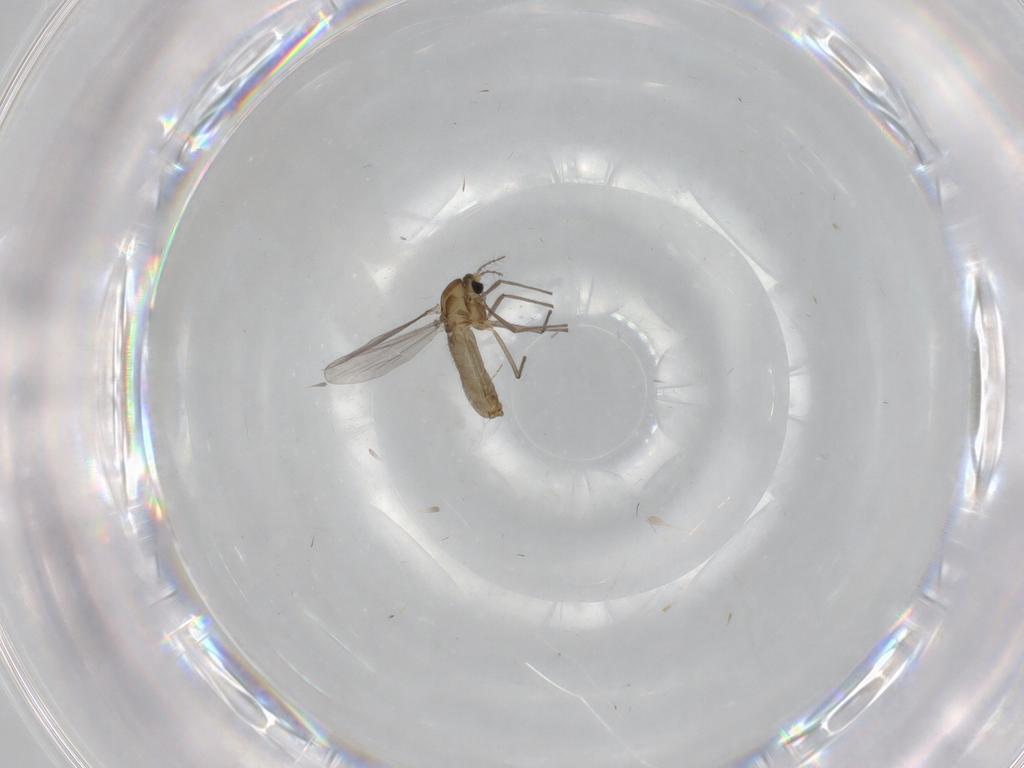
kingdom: Animalia
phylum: Arthropoda
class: Insecta
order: Diptera
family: Cecidomyiidae
